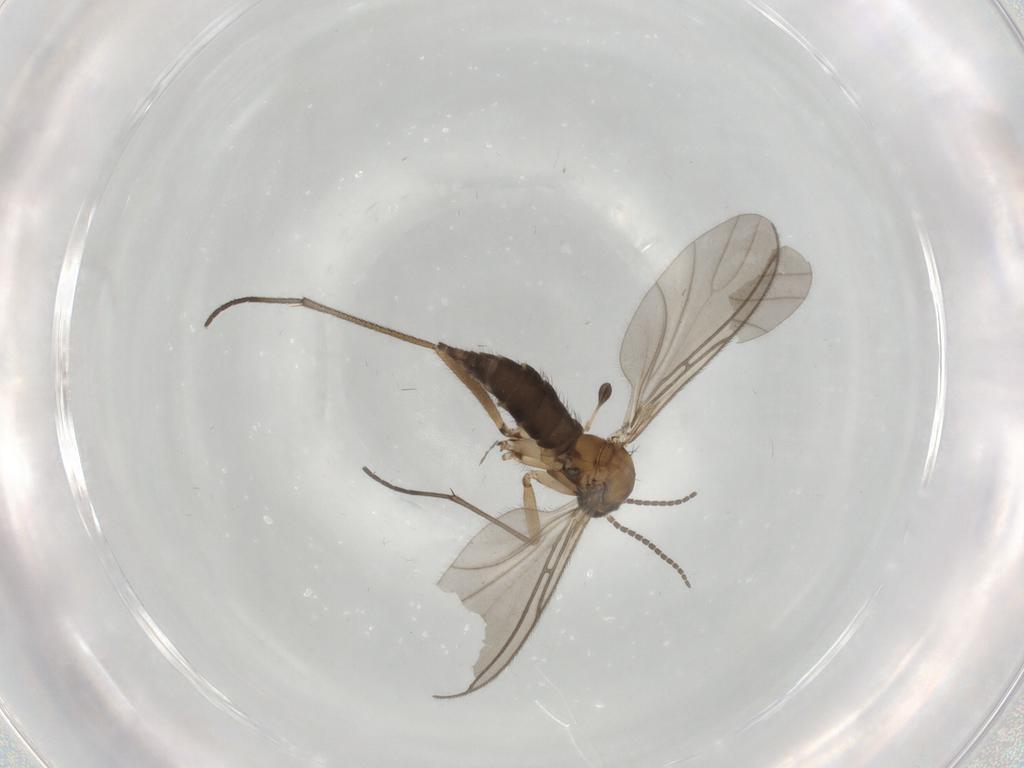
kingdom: Animalia
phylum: Arthropoda
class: Insecta
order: Diptera
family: Sciaridae
